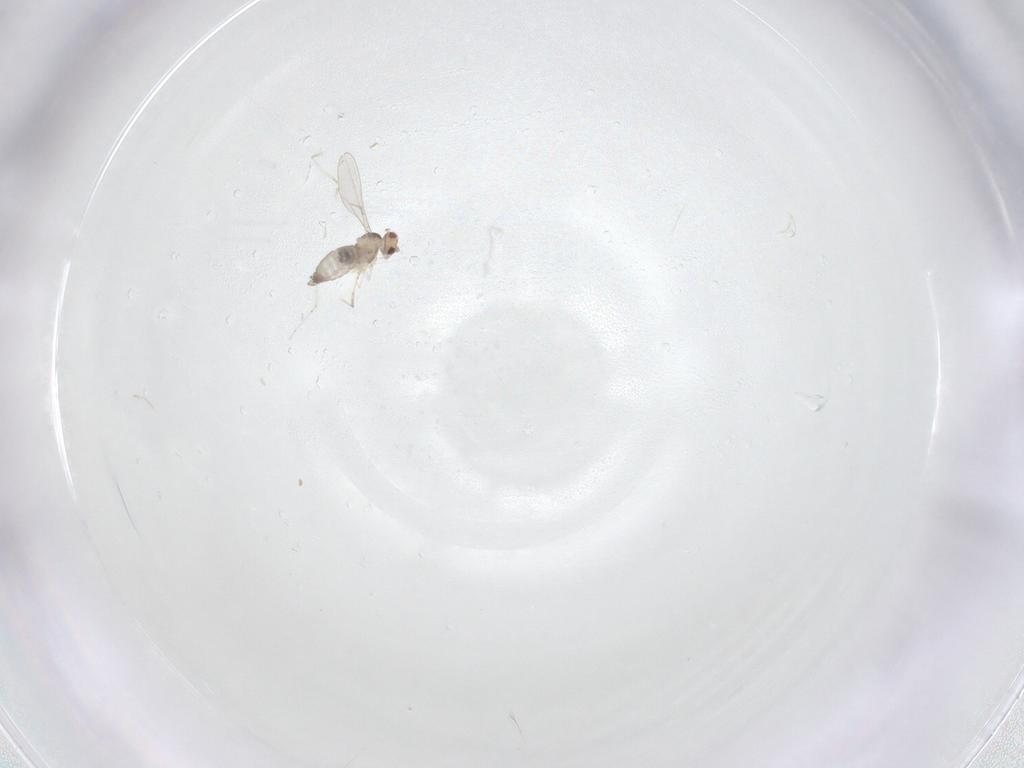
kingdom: Animalia
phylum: Arthropoda
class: Insecta
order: Diptera
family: Cecidomyiidae
